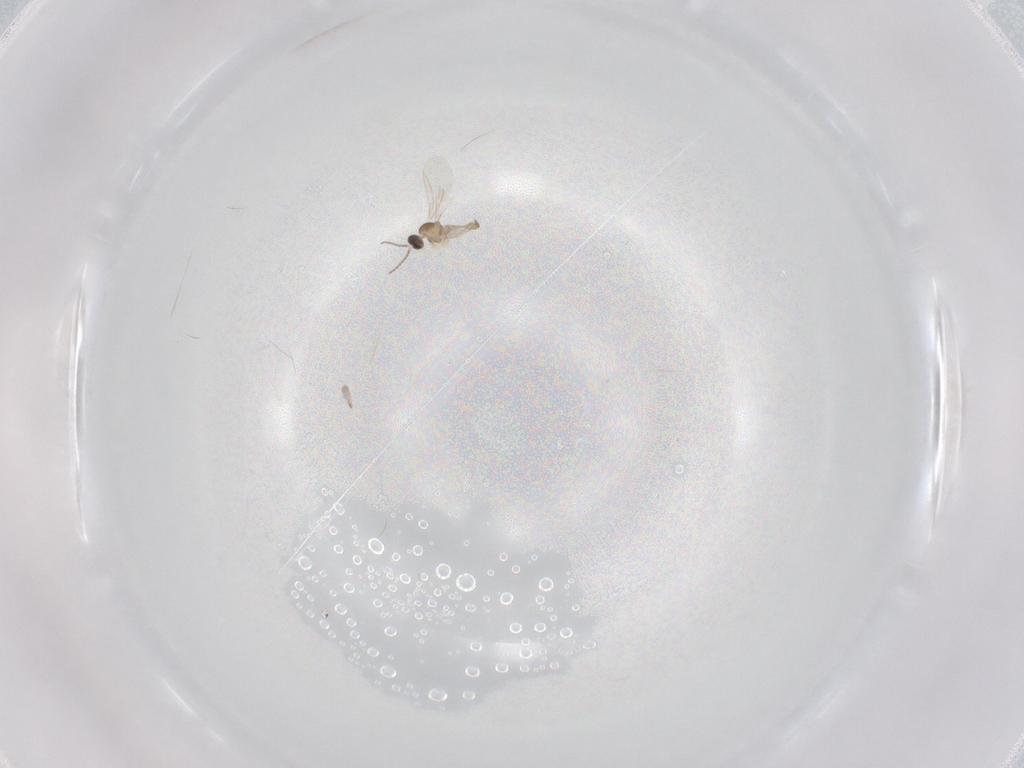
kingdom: Animalia
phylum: Arthropoda
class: Insecta
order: Diptera
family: Cecidomyiidae
